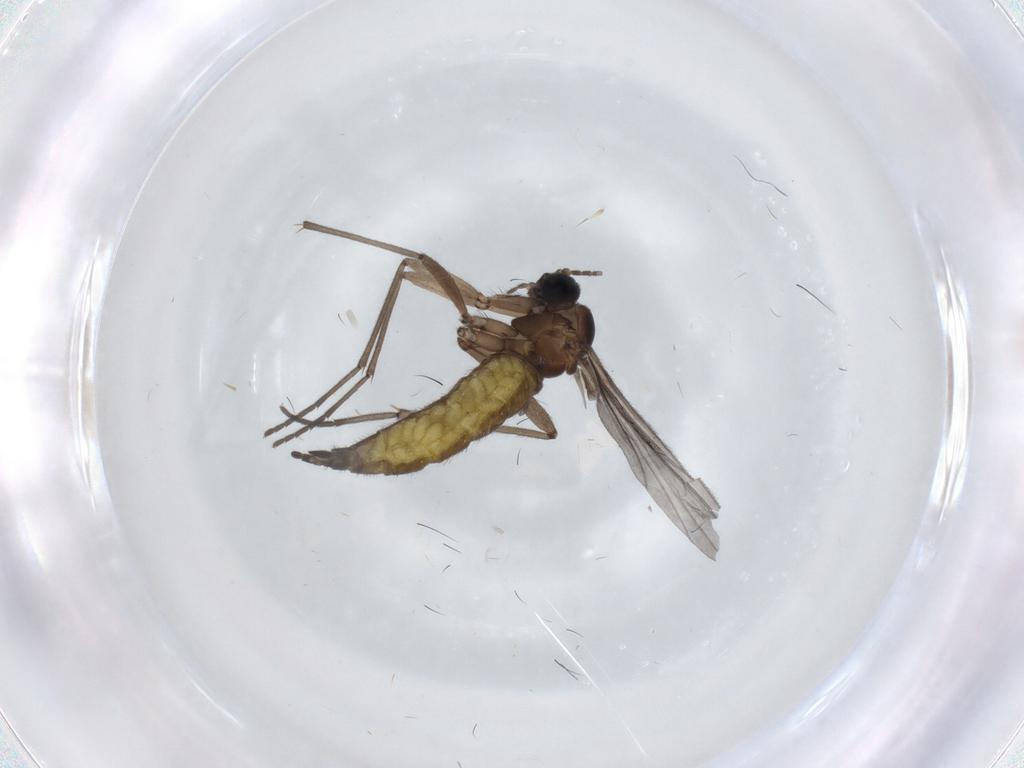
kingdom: Animalia
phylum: Arthropoda
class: Insecta
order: Diptera
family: Sciaridae
